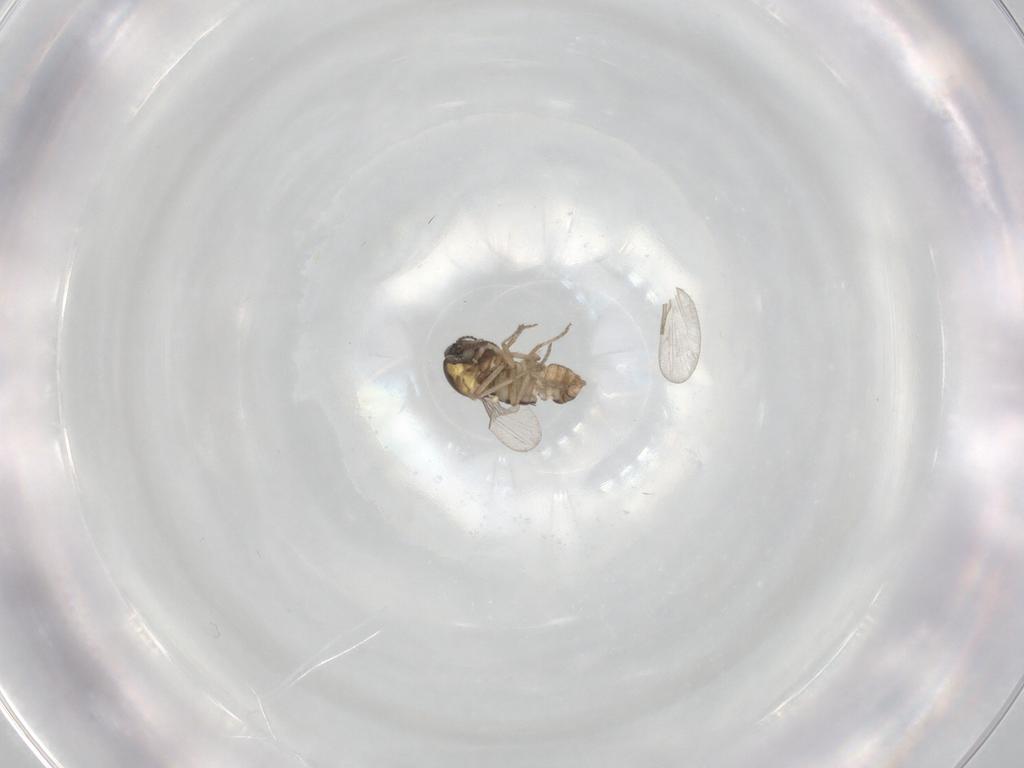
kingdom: Animalia
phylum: Arthropoda
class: Insecta
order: Diptera
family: Ceratopogonidae
